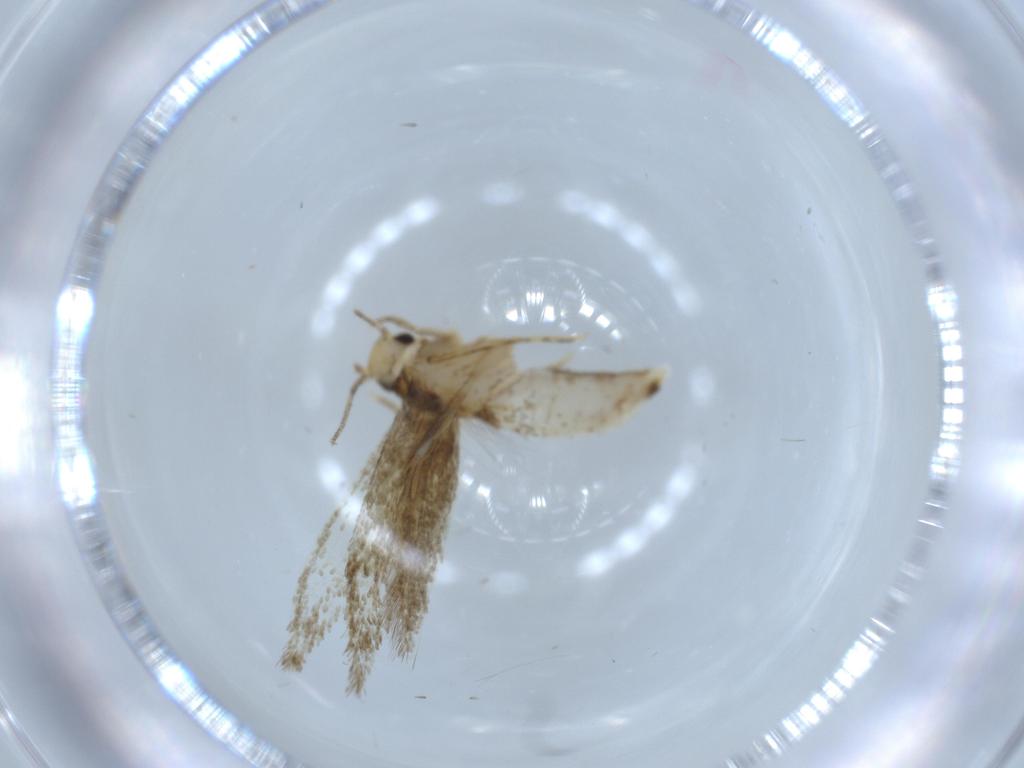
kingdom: Animalia
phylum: Arthropoda
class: Insecta
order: Lepidoptera
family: Tineidae
